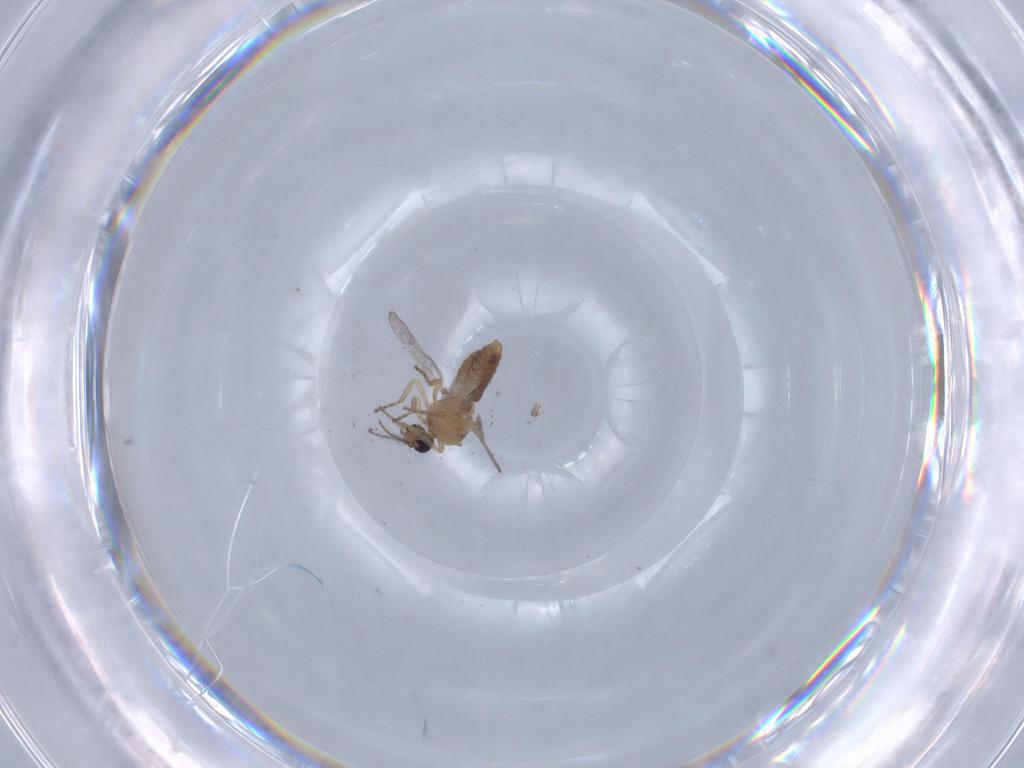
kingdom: Animalia
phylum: Arthropoda
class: Insecta
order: Diptera
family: Ceratopogonidae
